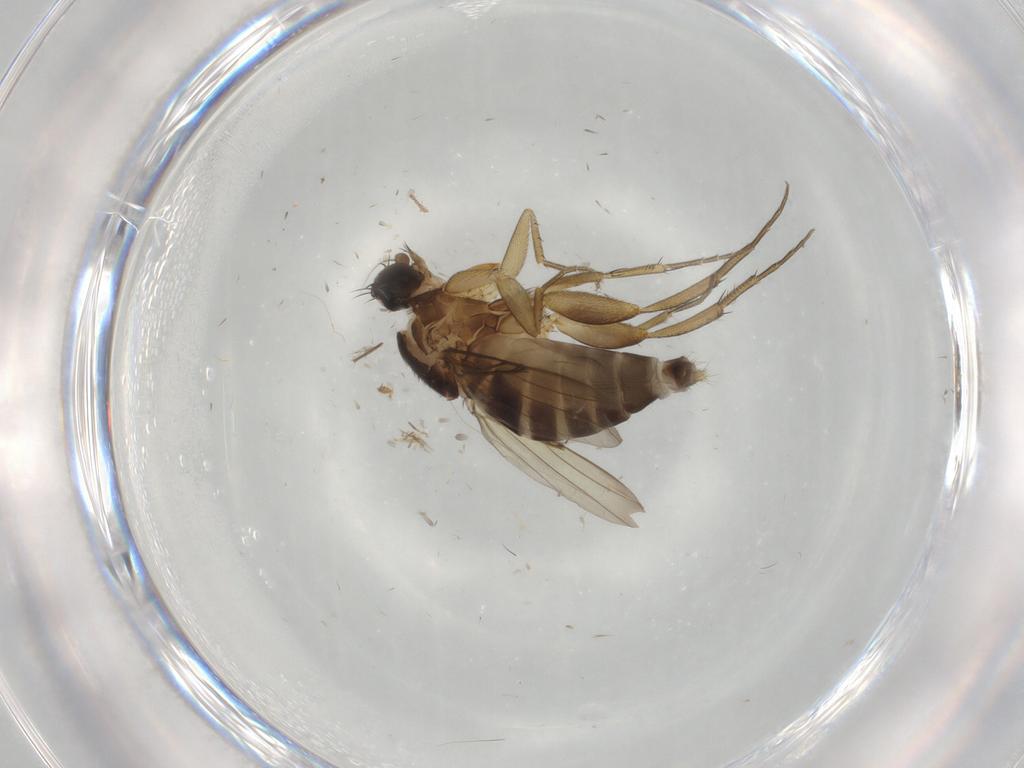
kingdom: Animalia
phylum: Arthropoda
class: Insecta
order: Diptera
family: Phoridae
